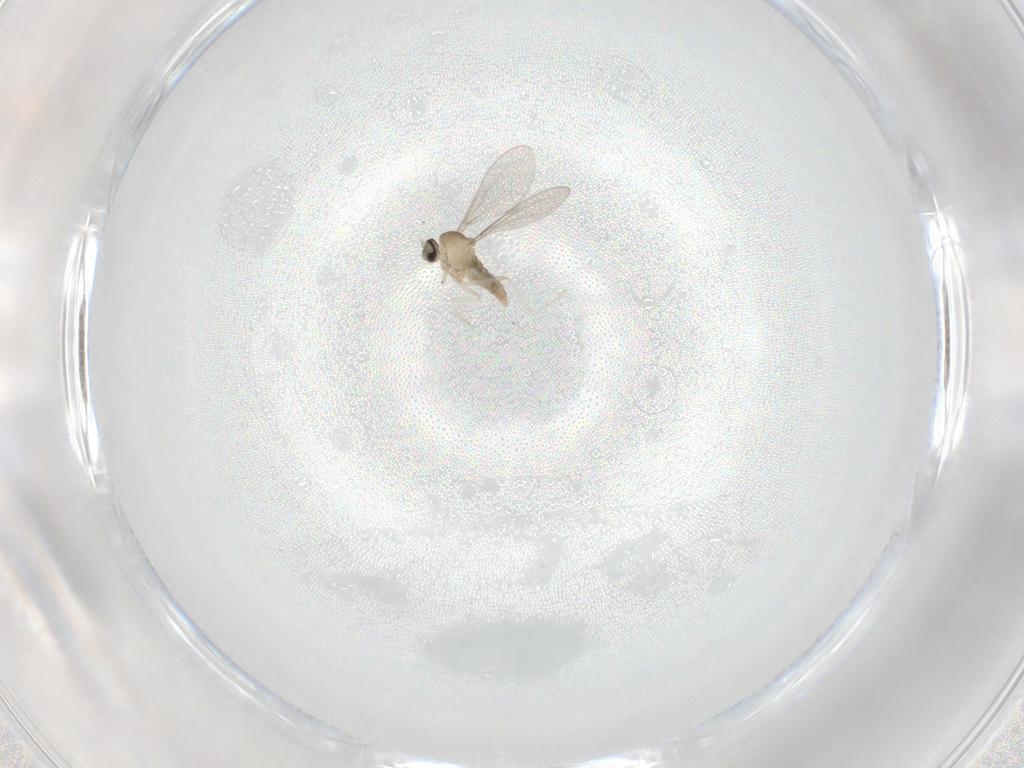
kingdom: Animalia
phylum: Arthropoda
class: Insecta
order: Diptera
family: Cecidomyiidae
